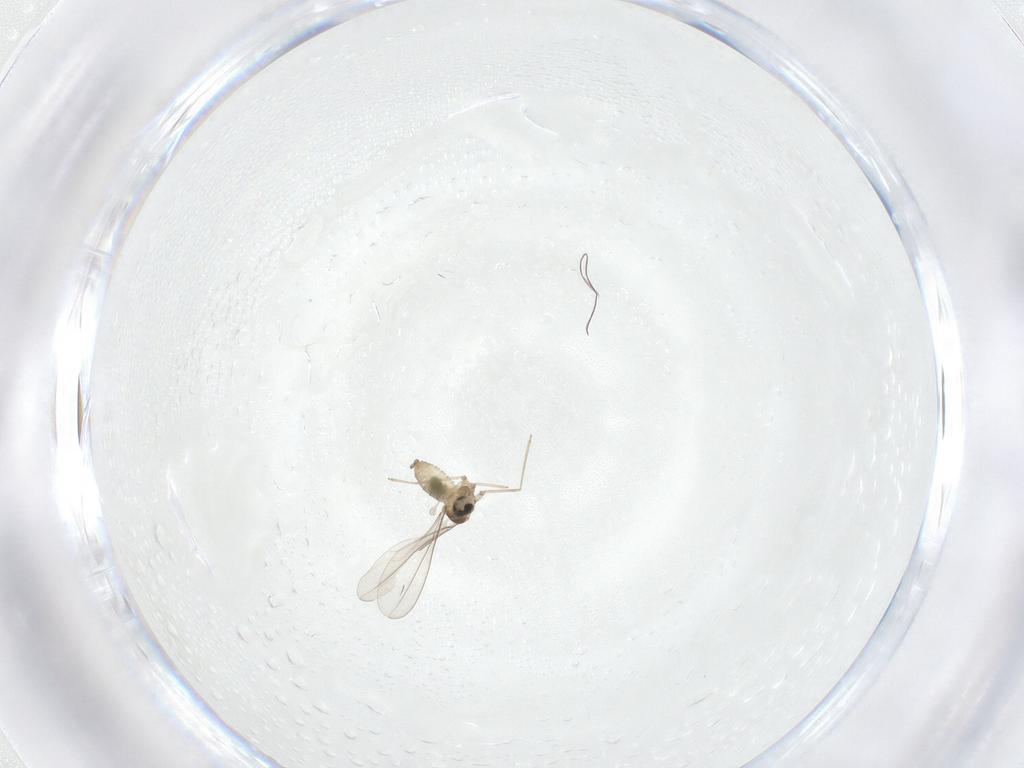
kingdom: Animalia
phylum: Arthropoda
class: Insecta
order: Diptera
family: Cecidomyiidae
